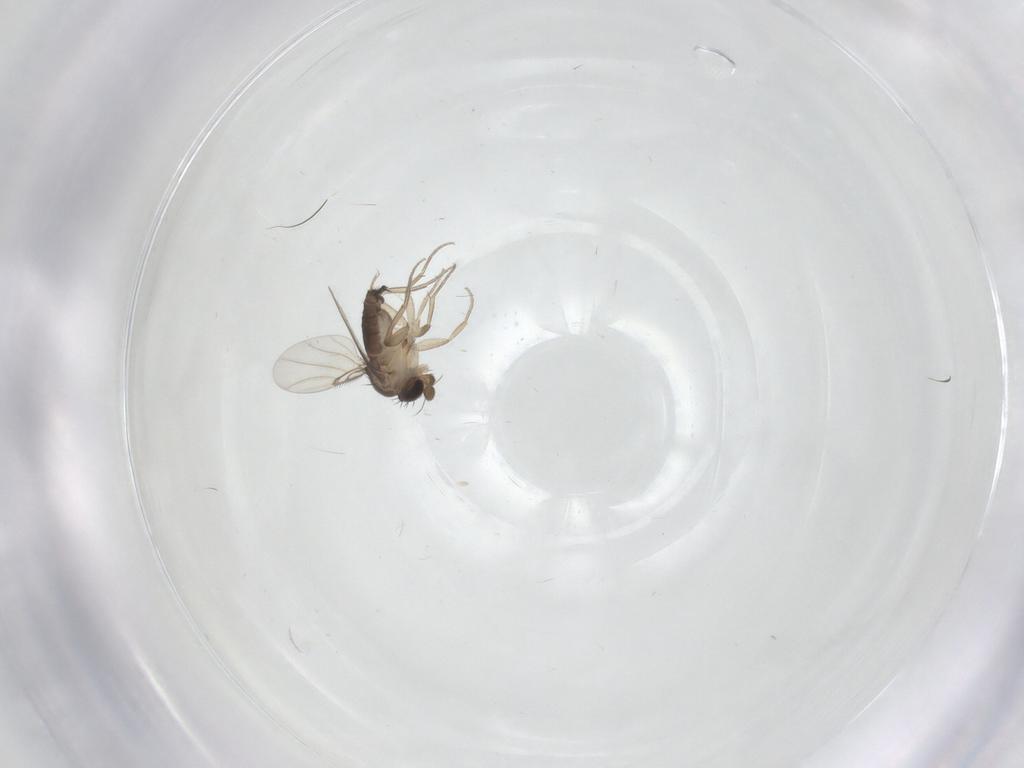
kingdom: Animalia
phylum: Arthropoda
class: Insecta
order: Diptera
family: Phoridae
